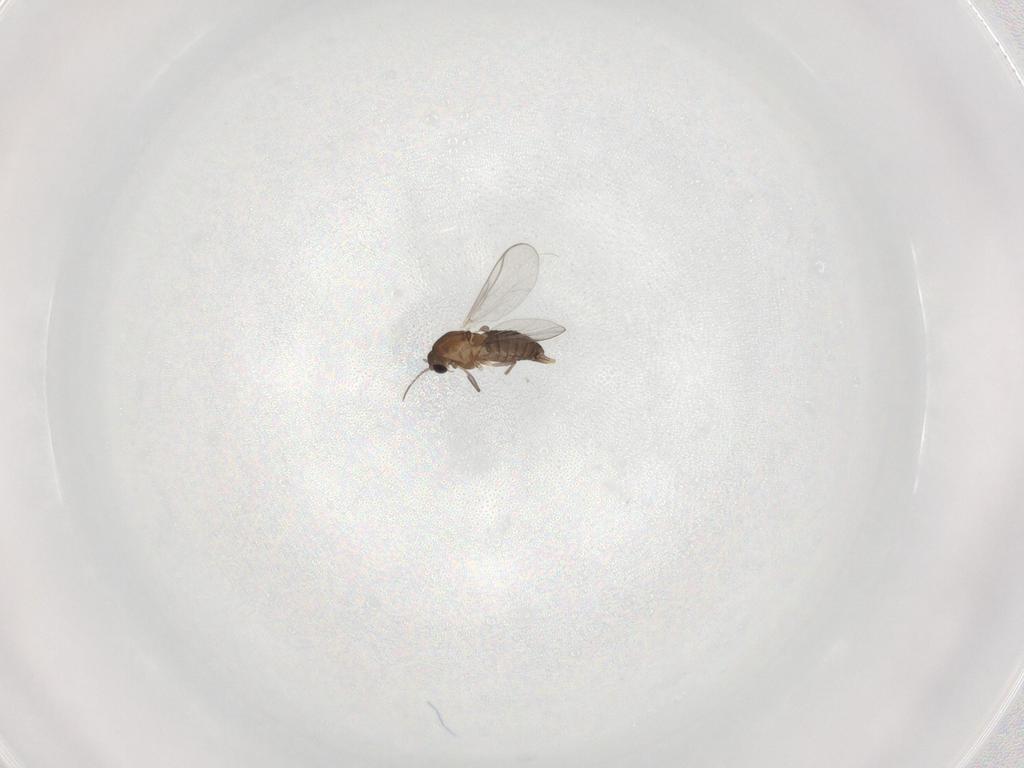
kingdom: Animalia
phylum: Arthropoda
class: Insecta
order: Diptera
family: Chironomidae
